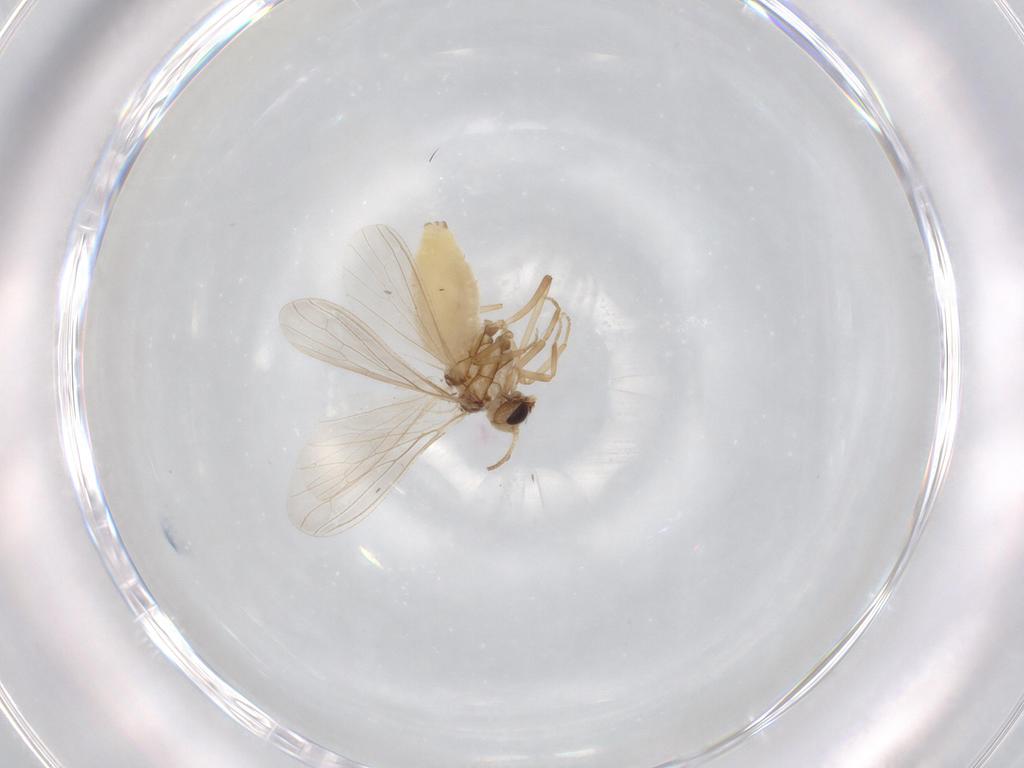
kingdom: Animalia
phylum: Arthropoda
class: Insecta
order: Neuroptera
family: Coniopterygidae
